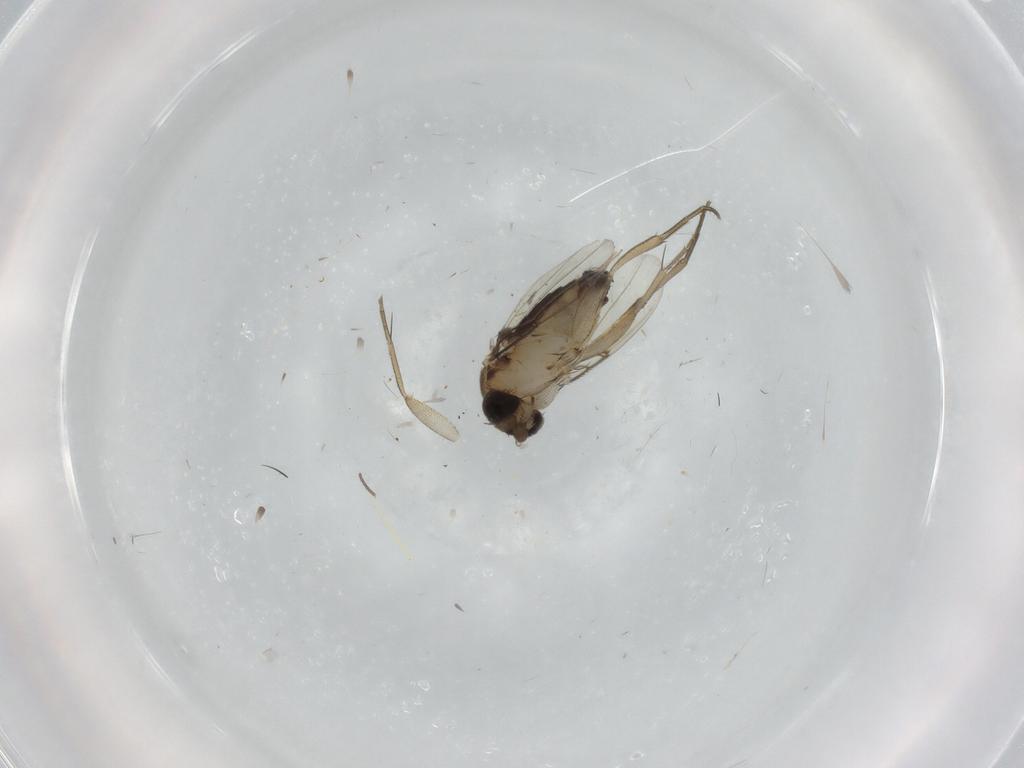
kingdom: Animalia
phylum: Arthropoda
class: Insecta
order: Diptera
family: Phoridae
